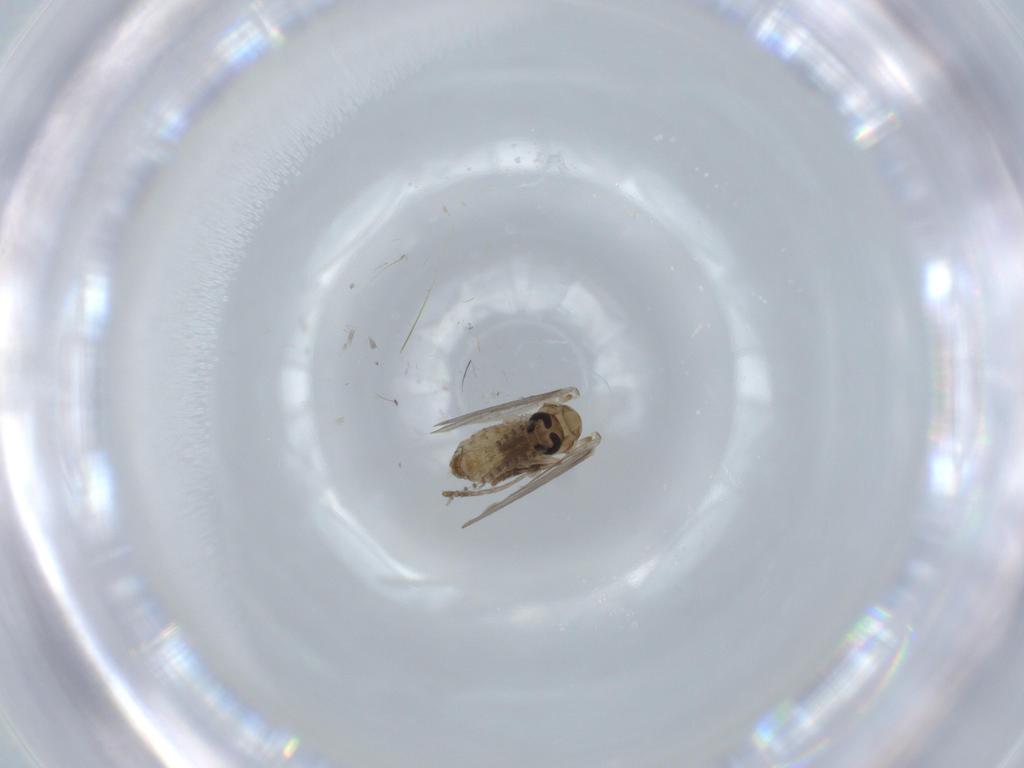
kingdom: Animalia
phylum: Arthropoda
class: Insecta
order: Diptera
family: Psychodidae
